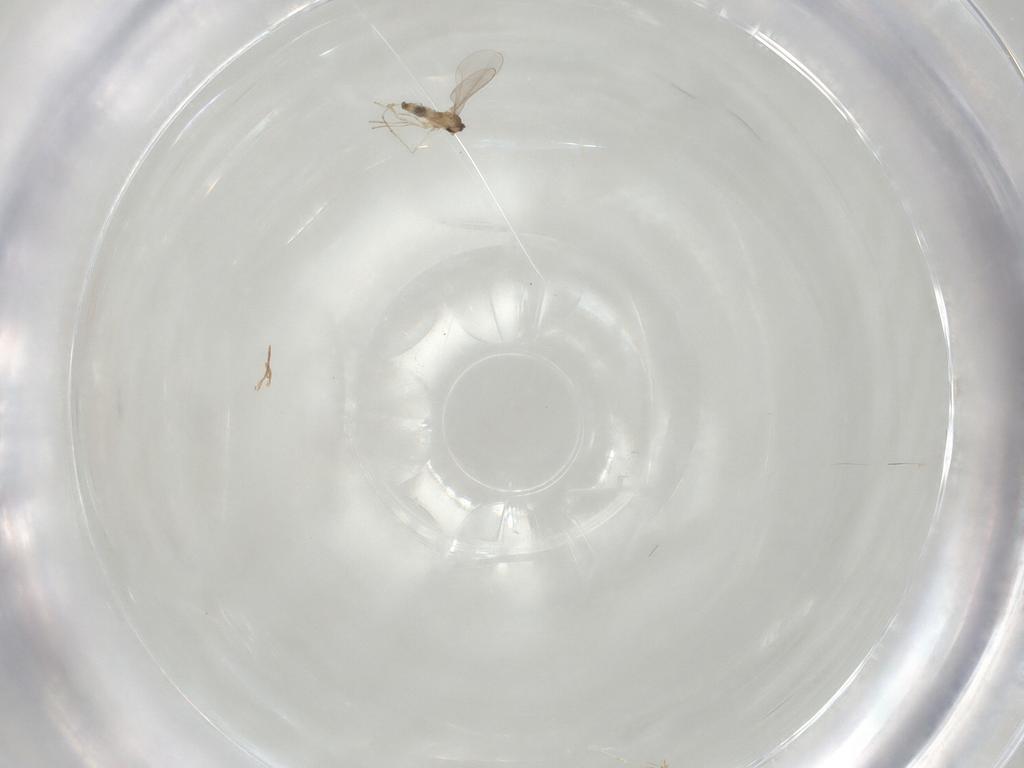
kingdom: Animalia
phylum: Arthropoda
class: Insecta
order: Diptera
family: Cecidomyiidae
